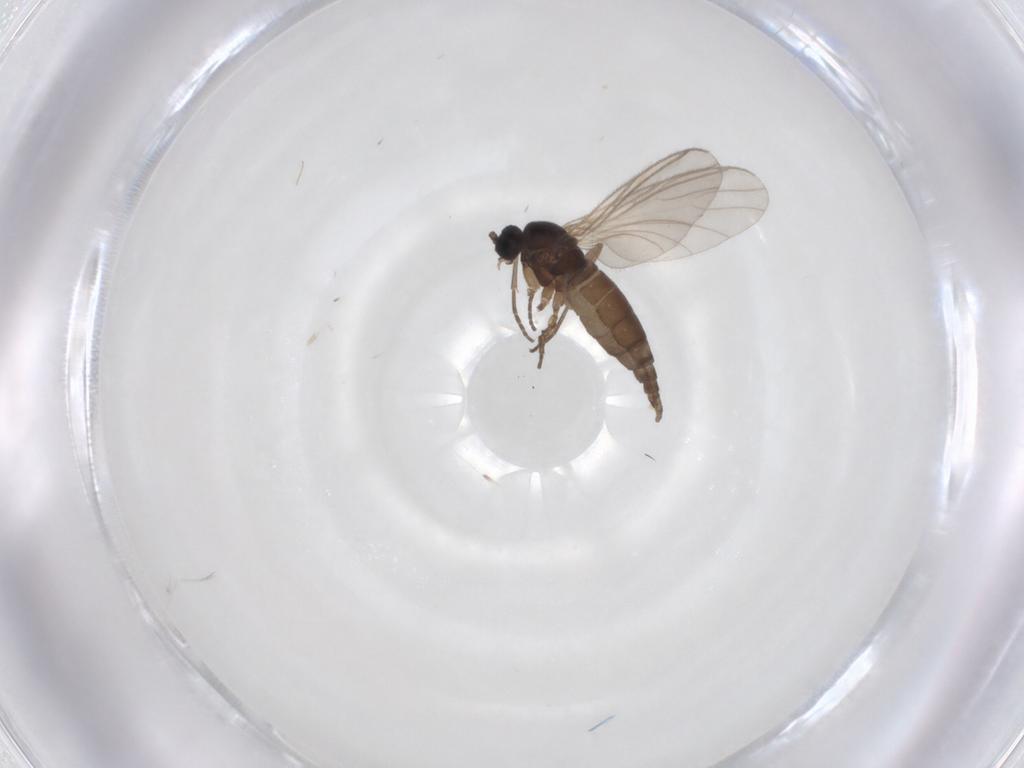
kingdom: Animalia
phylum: Arthropoda
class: Insecta
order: Diptera
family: Sciaridae
